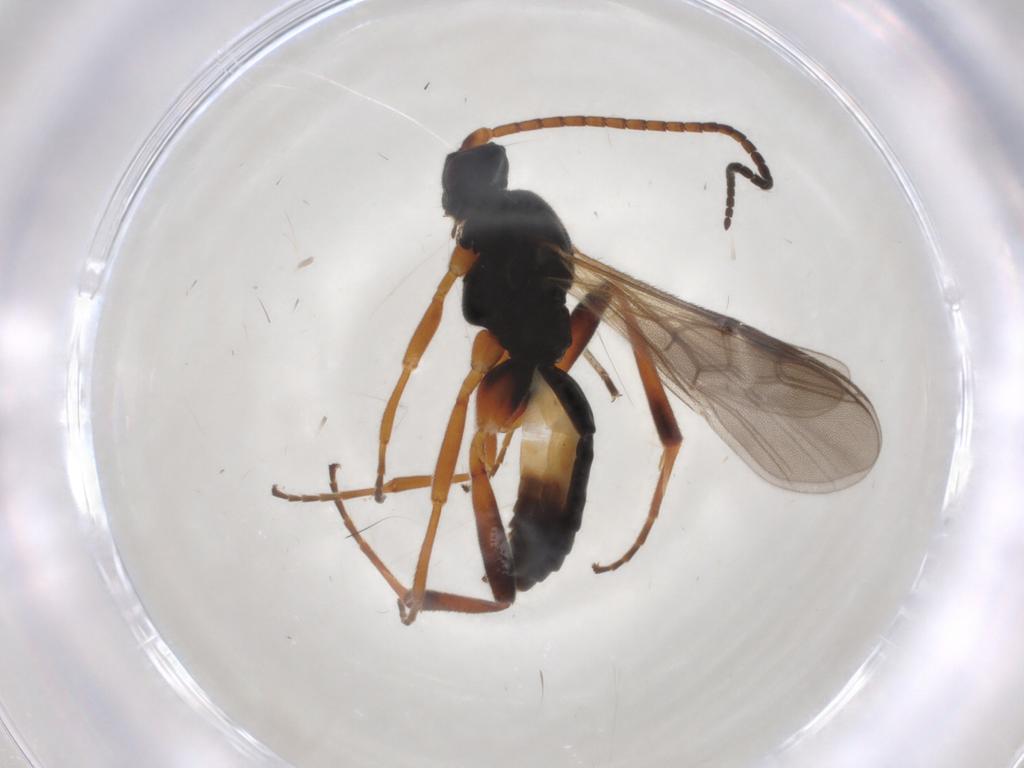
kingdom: Animalia
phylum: Arthropoda
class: Insecta
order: Hymenoptera
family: Braconidae
